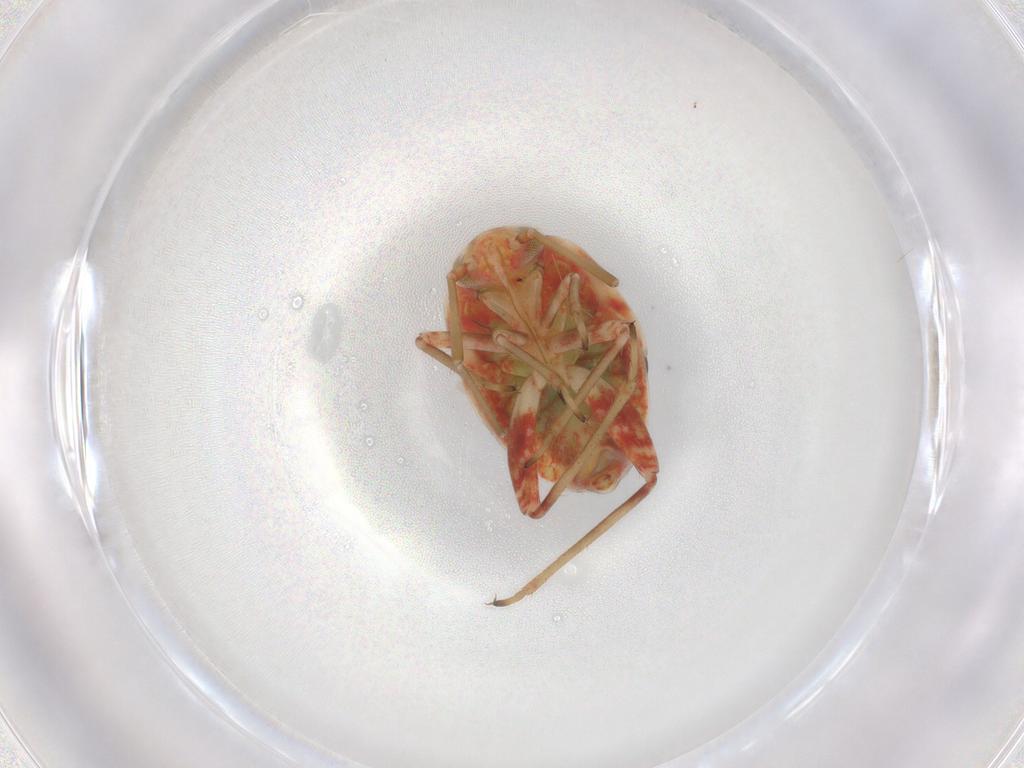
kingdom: Animalia
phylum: Arthropoda
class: Insecta
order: Hemiptera
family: Miridae
